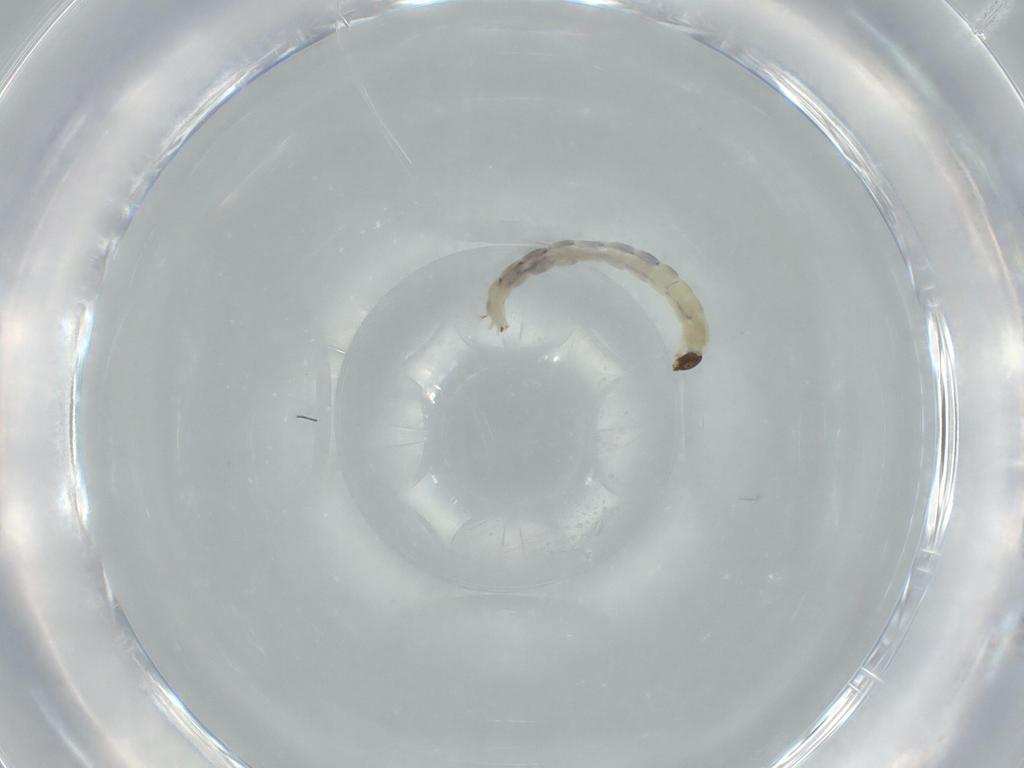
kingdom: Animalia
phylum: Arthropoda
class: Insecta
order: Diptera
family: Chironomidae
